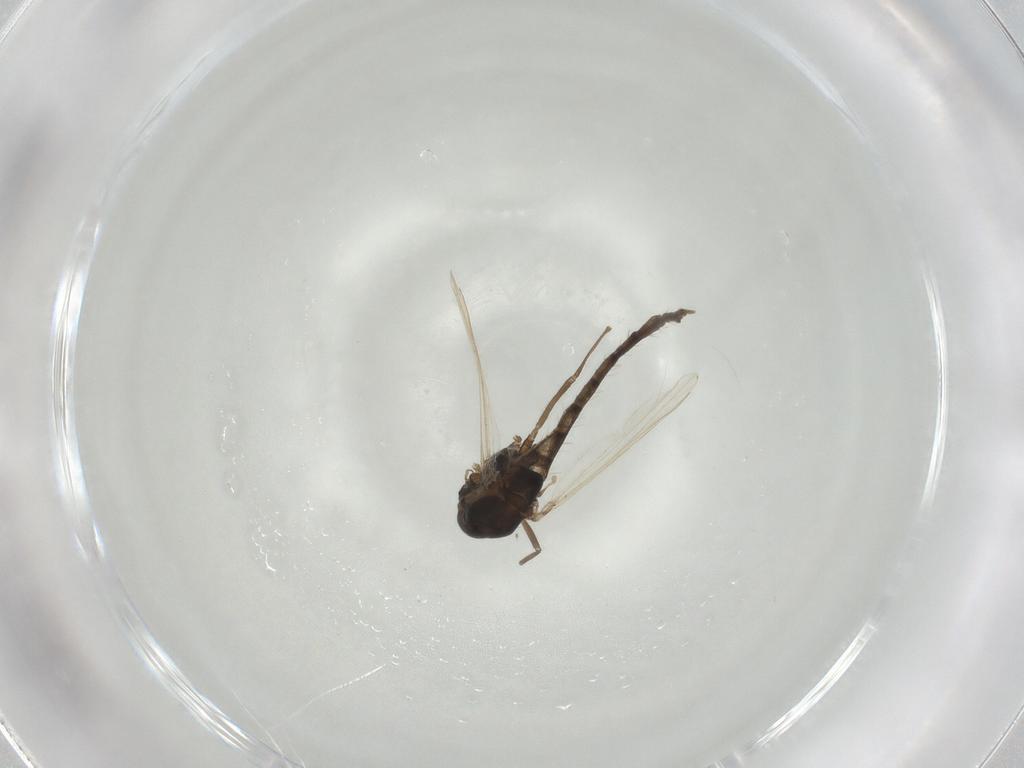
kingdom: Animalia
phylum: Arthropoda
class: Insecta
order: Diptera
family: Chironomidae
